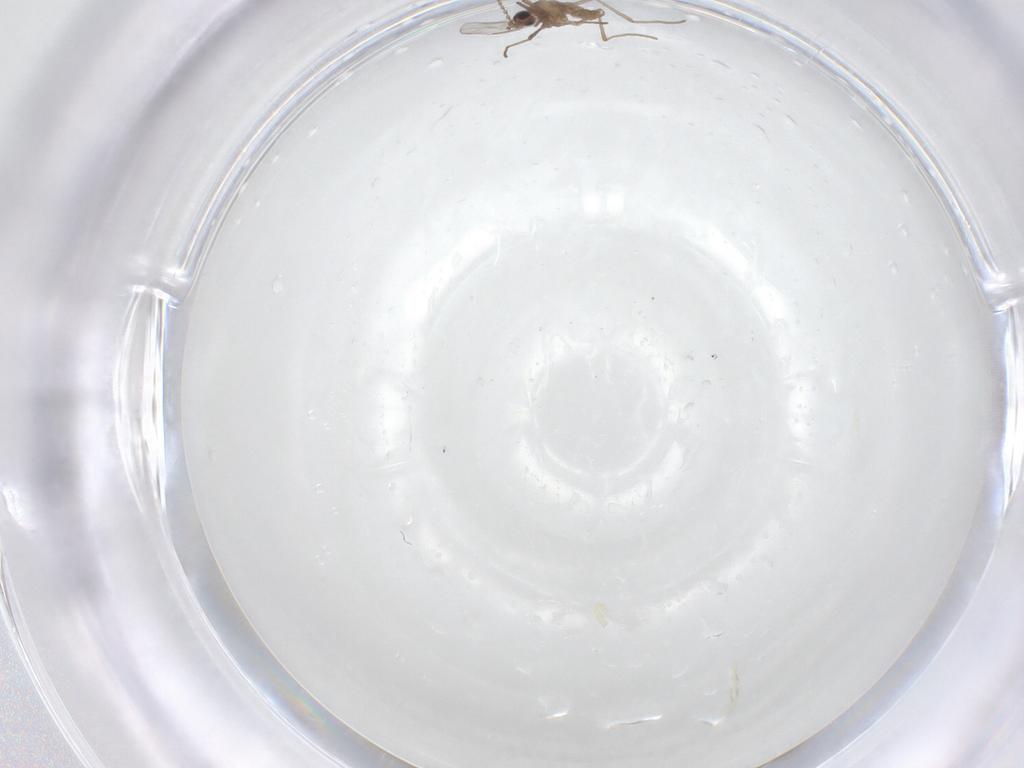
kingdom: Animalia
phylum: Arthropoda
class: Insecta
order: Diptera
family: Cecidomyiidae
